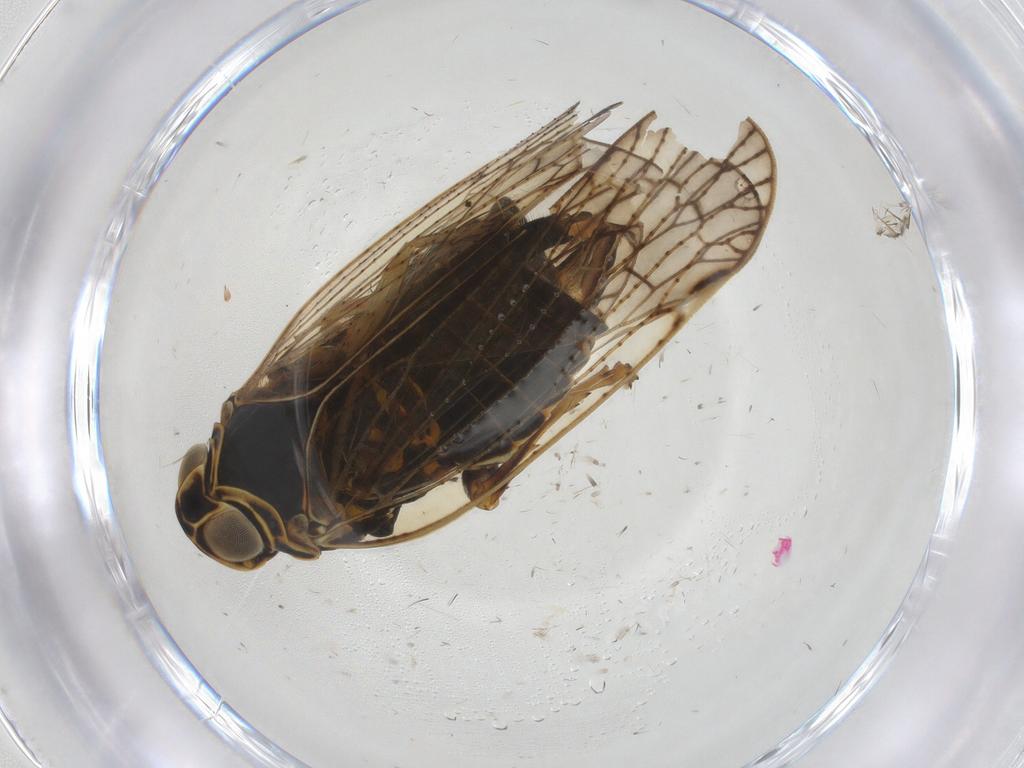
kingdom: Animalia
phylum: Arthropoda
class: Insecta
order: Hemiptera
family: Cixiidae
